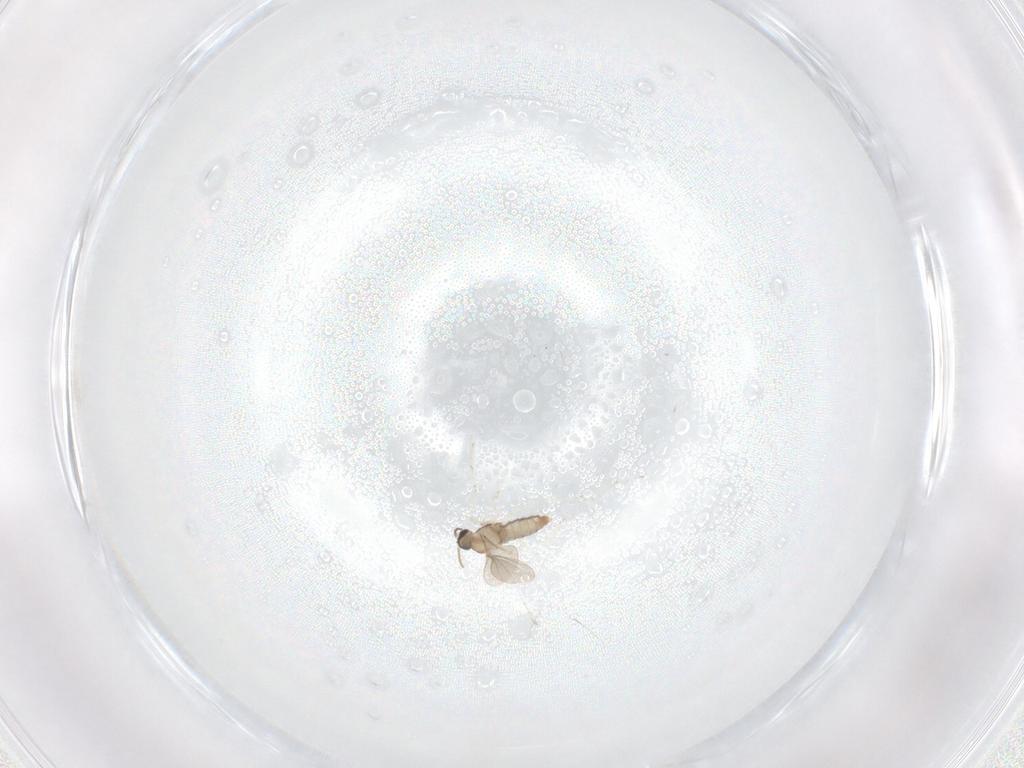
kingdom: Animalia
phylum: Arthropoda
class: Insecta
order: Diptera
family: Cecidomyiidae
